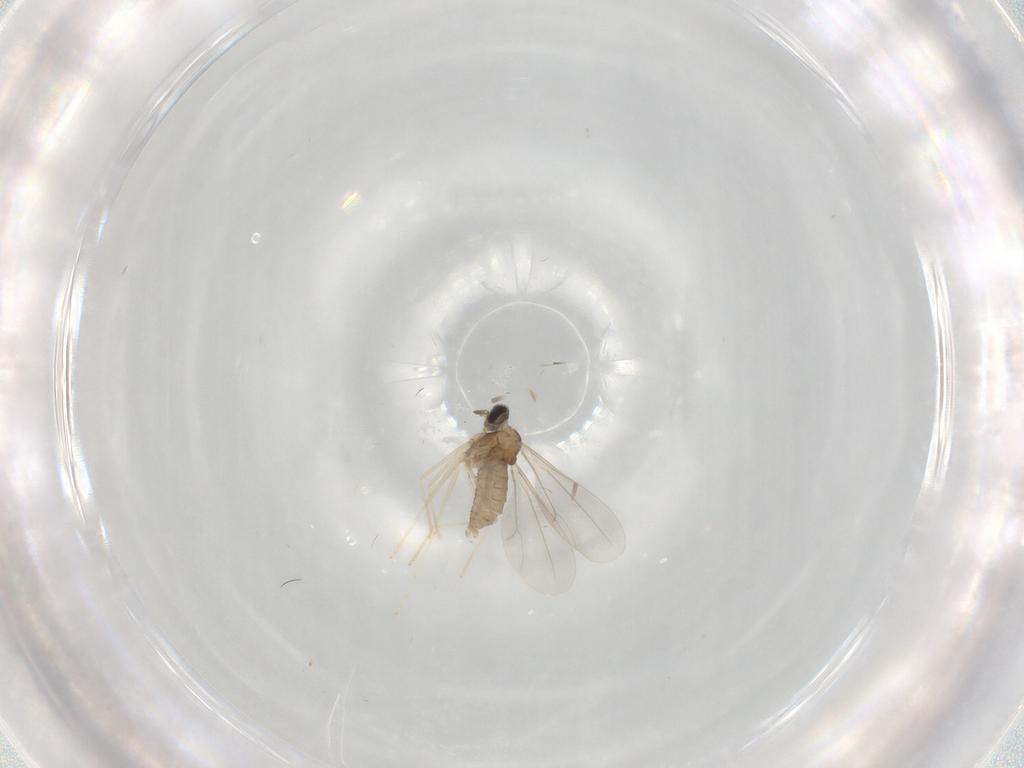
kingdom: Animalia
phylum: Arthropoda
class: Insecta
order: Diptera
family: Cecidomyiidae
